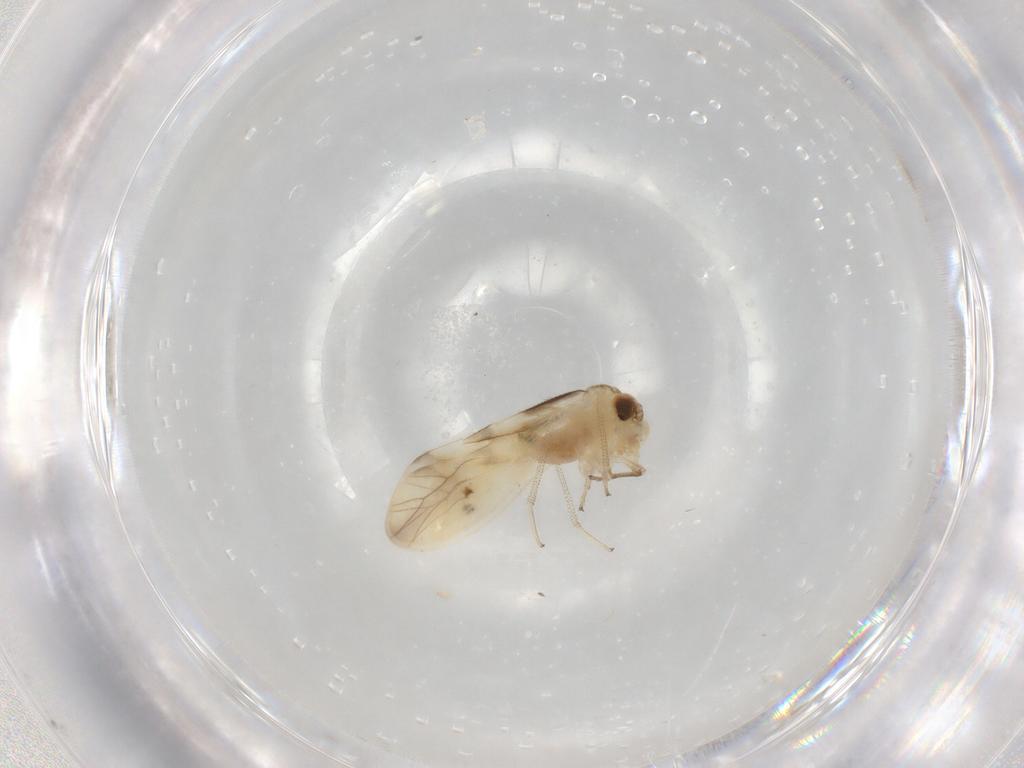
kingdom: Animalia
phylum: Arthropoda
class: Insecta
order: Psocodea
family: Caeciliusidae
